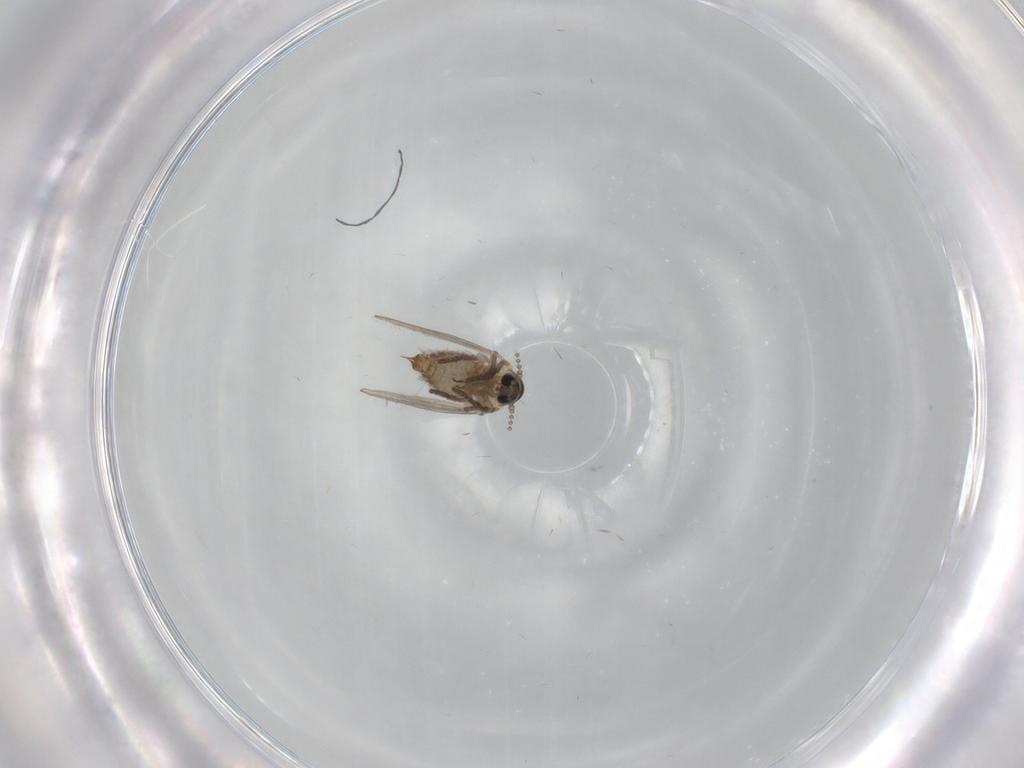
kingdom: Animalia
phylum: Arthropoda
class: Insecta
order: Diptera
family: Psychodidae
